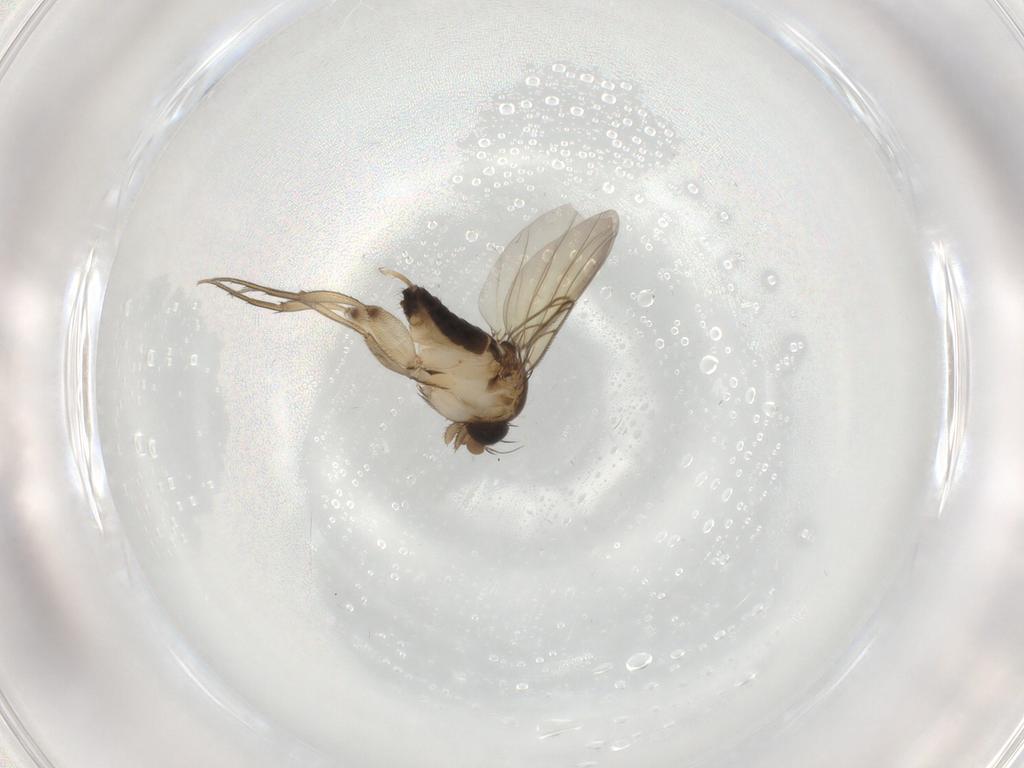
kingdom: Animalia
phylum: Arthropoda
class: Insecta
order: Diptera
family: Phoridae
